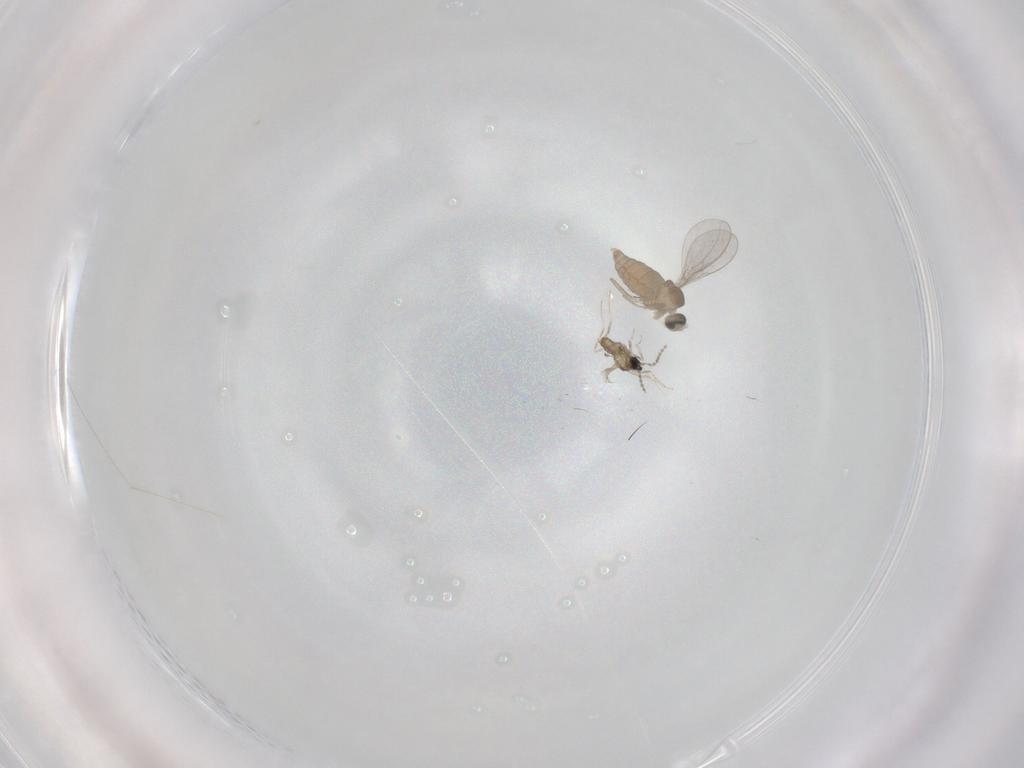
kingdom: Animalia
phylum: Arthropoda
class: Insecta
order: Diptera
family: Cecidomyiidae
